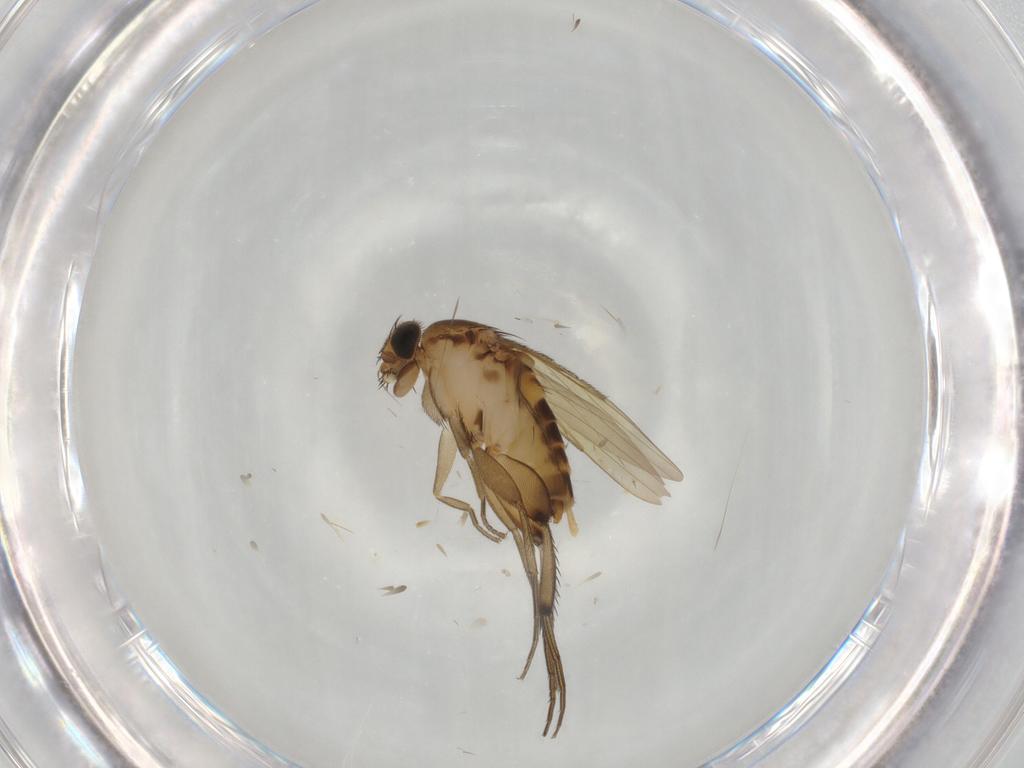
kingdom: Animalia
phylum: Arthropoda
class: Insecta
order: Diptera
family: Phoridae
